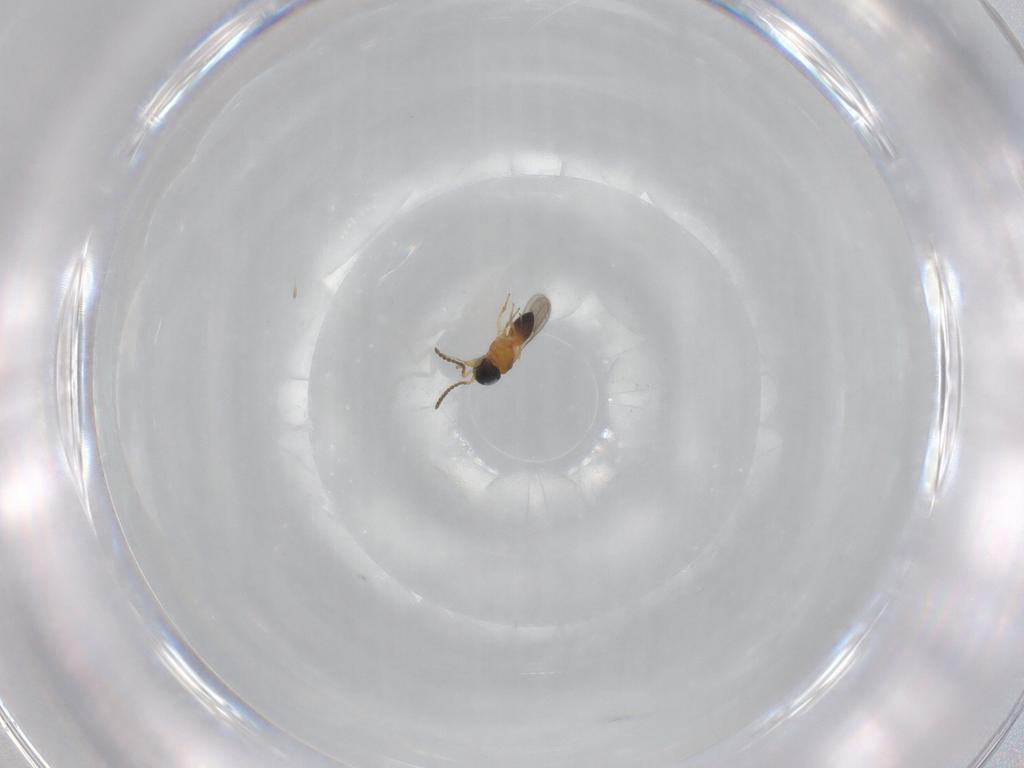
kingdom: Animalia
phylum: Arthropoda
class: Insecta
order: Hymenoptera
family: Scelionidae
